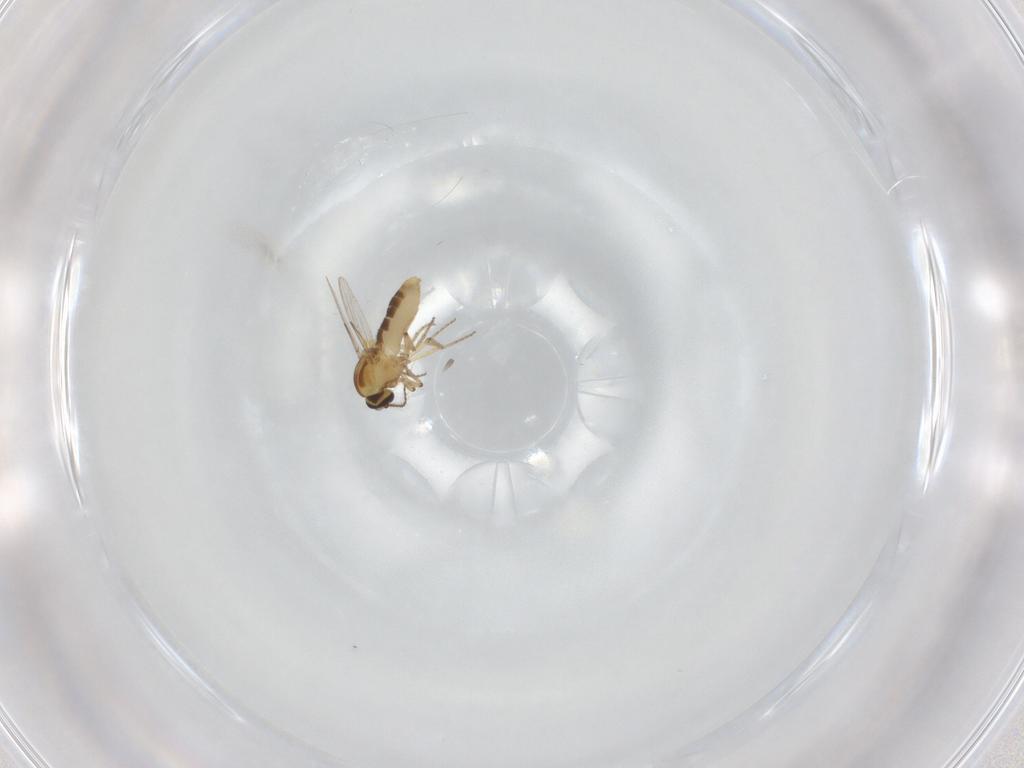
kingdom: Animalia
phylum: Arthropoda
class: Insecta
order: Diptera
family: Ceratopogonidae
